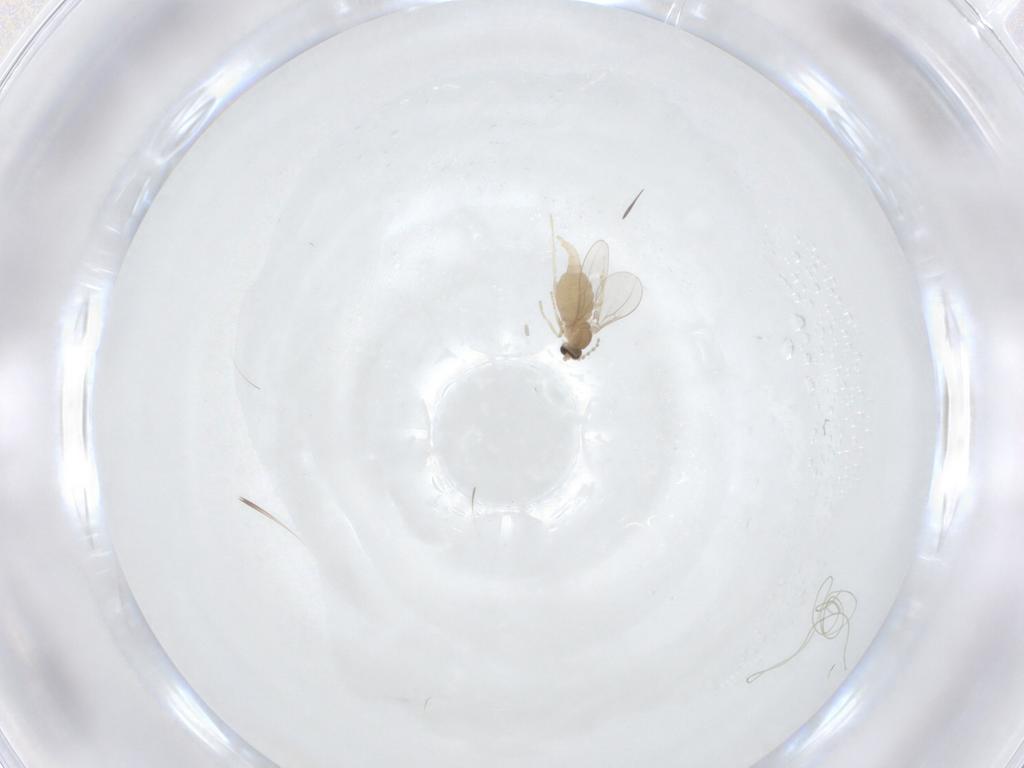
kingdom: Animalia
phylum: Arthropoda
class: Insecta
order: Diptera
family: Cecidomyiidae
